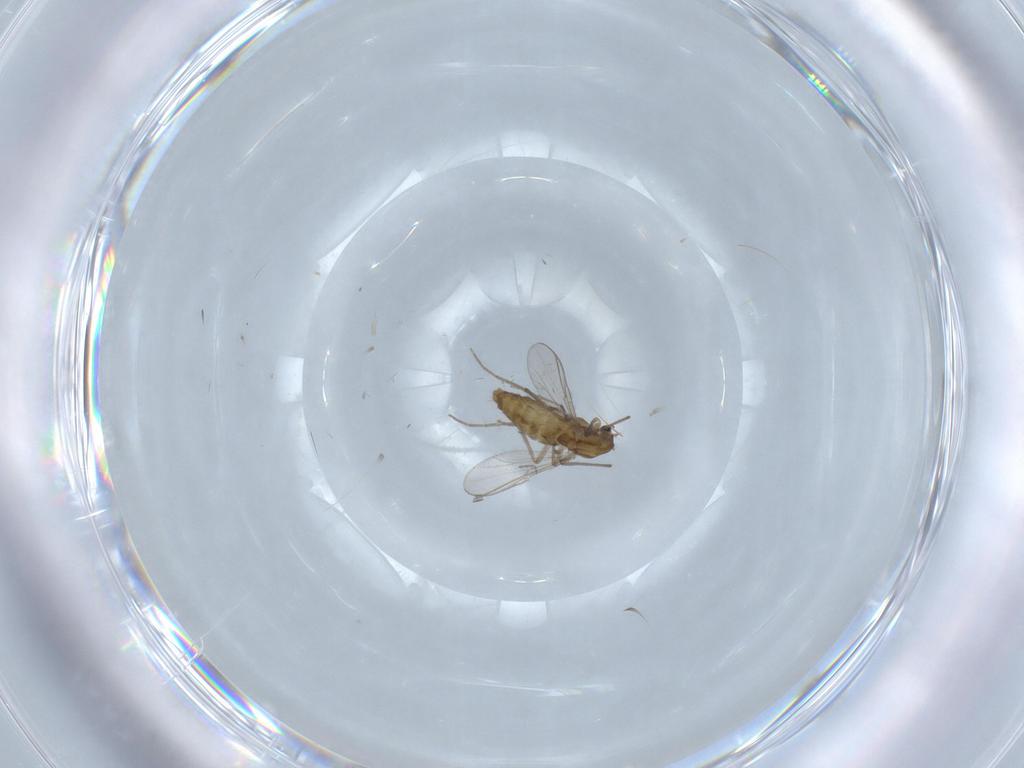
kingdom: Animalia
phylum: Arthropoda
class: Insecta
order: Diptera
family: Chironomidae
